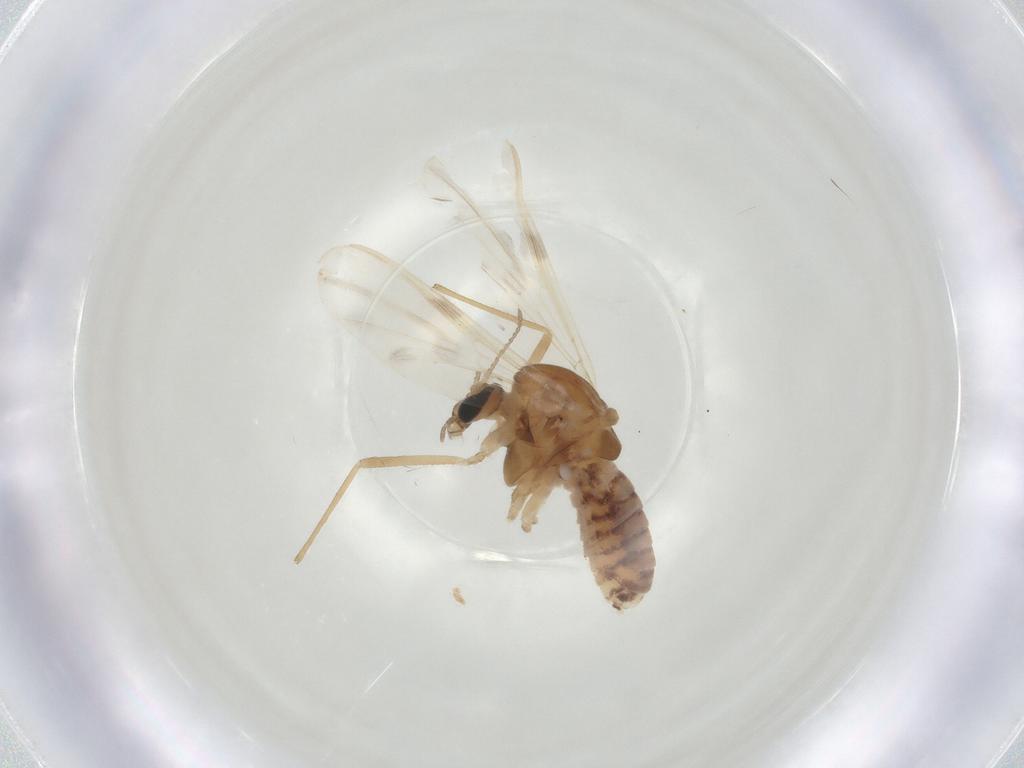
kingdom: Animalia
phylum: Arthropoda
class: Insecta
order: Diptera
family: Chironomidae
